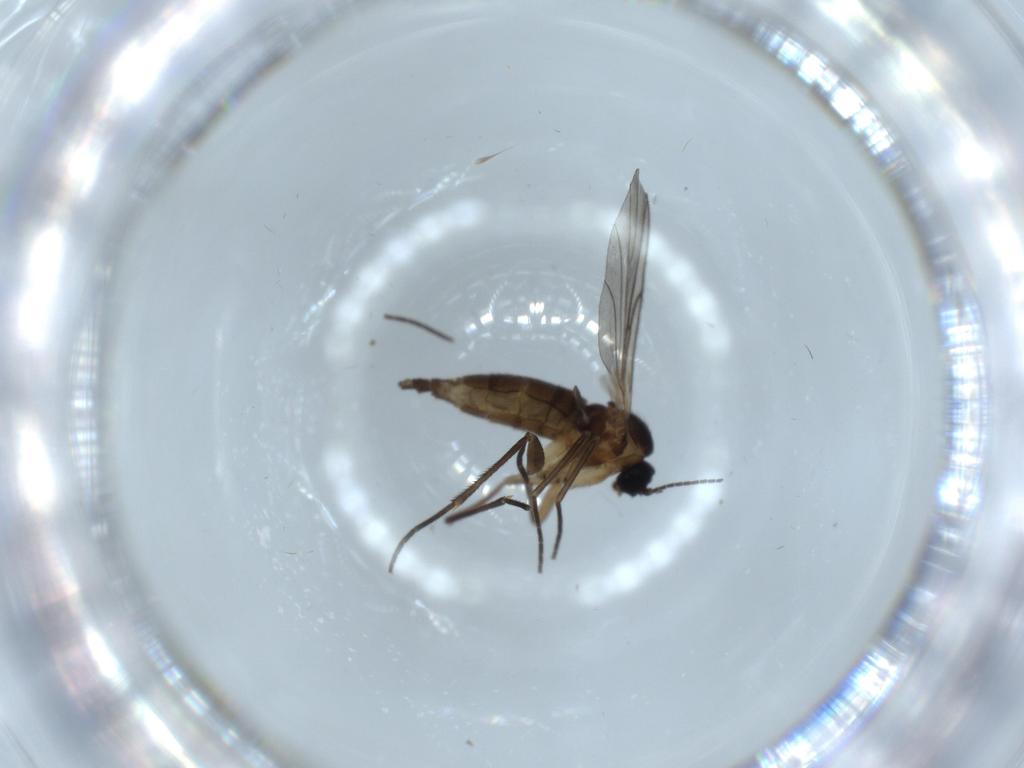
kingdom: Animalia
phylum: Arthropoda
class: Insecta
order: Diptera
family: Sciaridae
